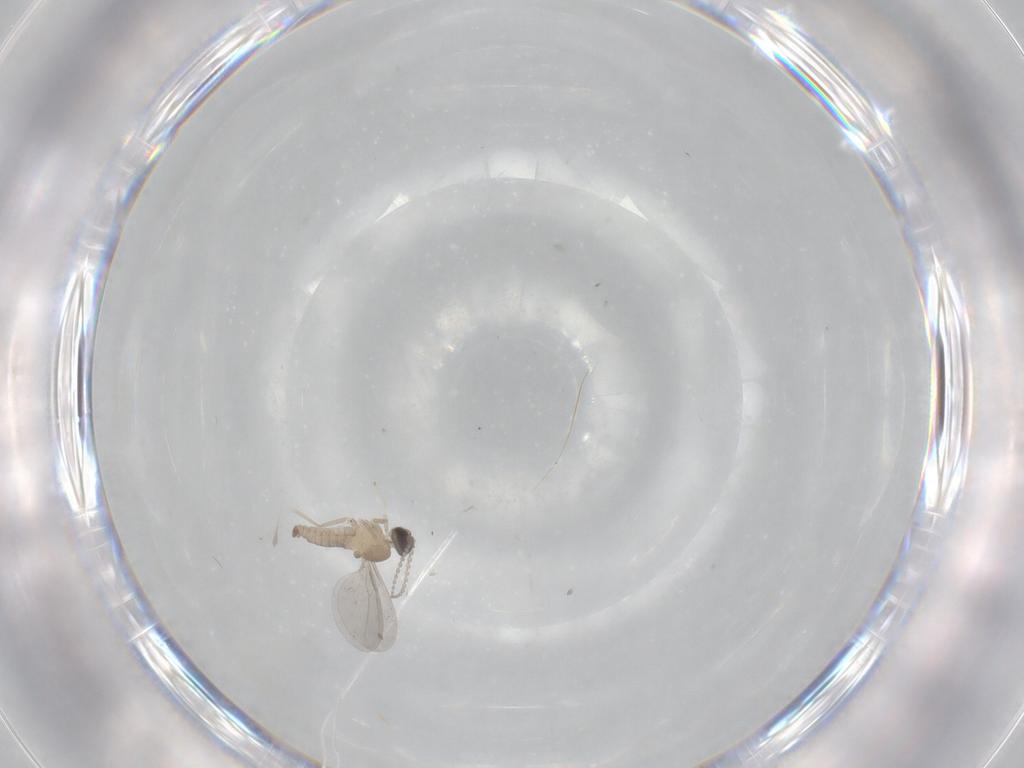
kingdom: Animalia
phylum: Arthropoda
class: Insecta
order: Diptera
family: Cecidomyiidae
